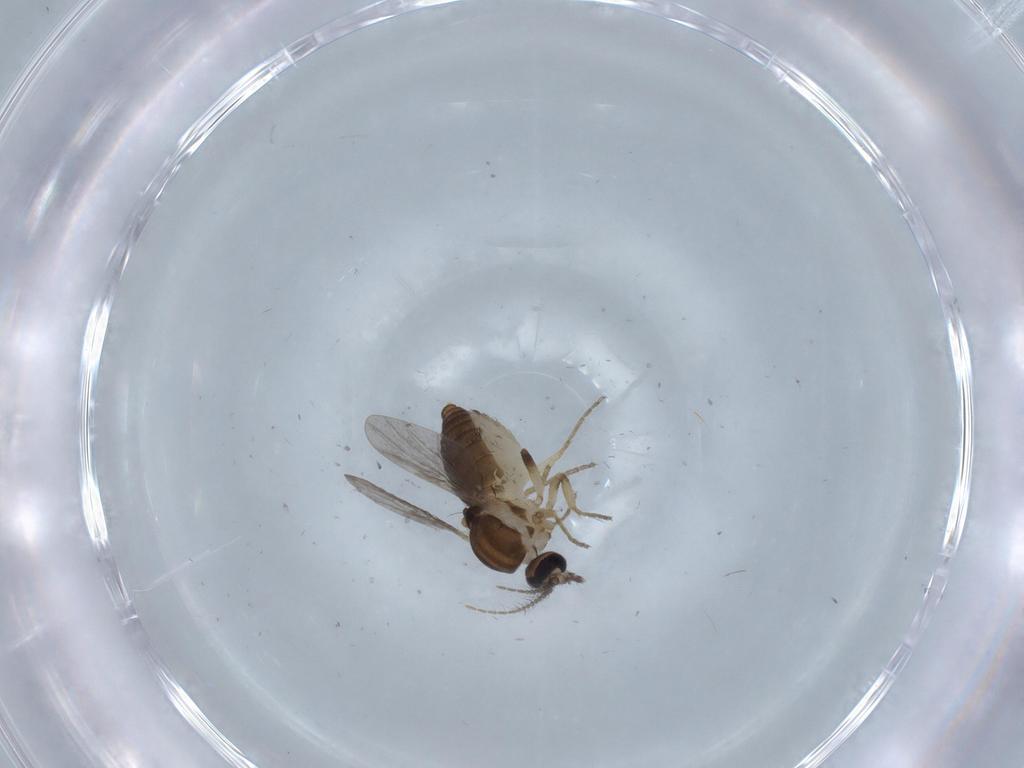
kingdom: Animalia
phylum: Arthropoda
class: Insecta
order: Diptera
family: Ceratopogonidae
